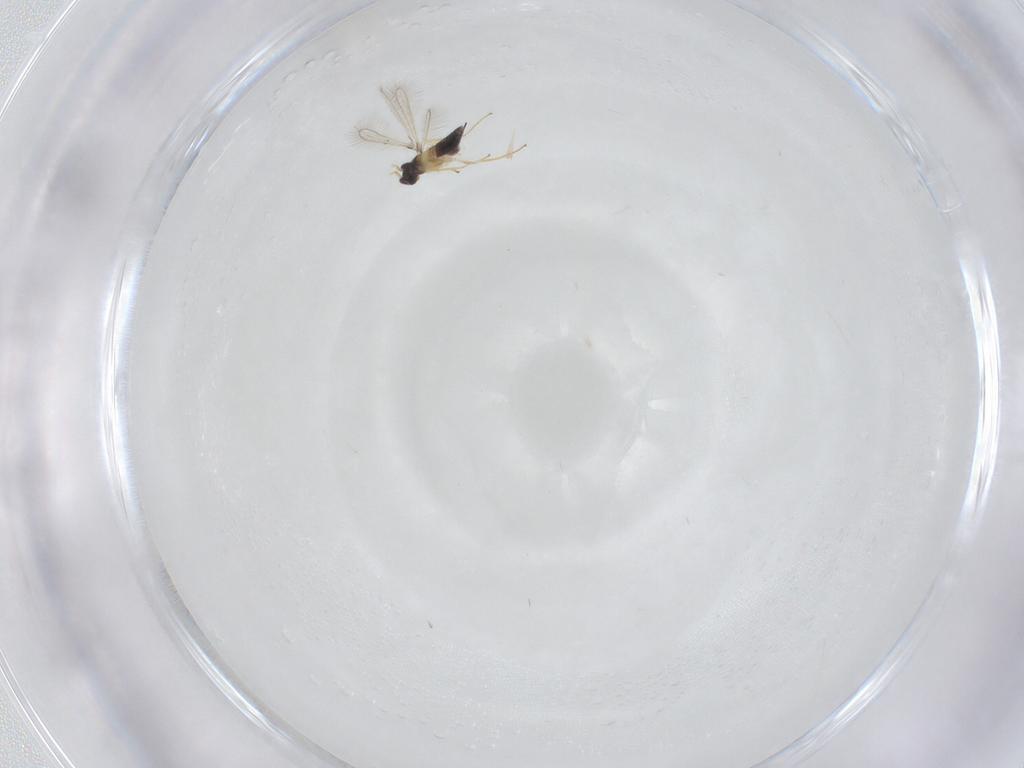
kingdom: Animalia
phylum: Arthropoda
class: Insecta
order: Hymenoptera
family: Mymaridae
